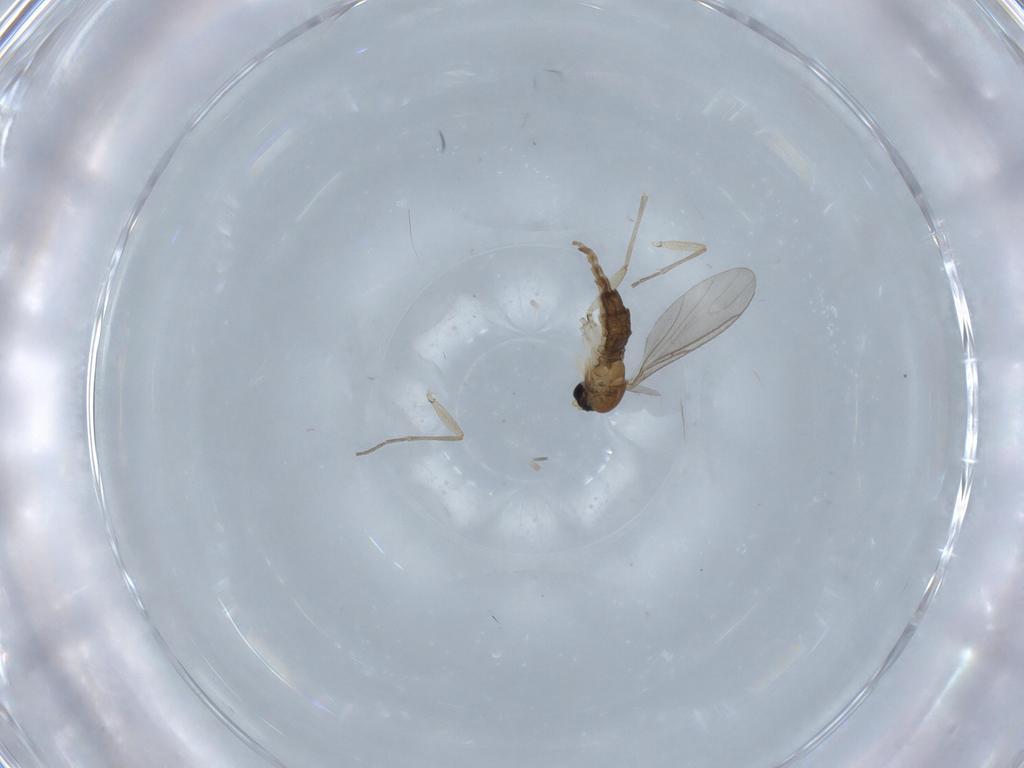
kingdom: Animalia
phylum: Arthropoda
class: Insecta
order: Diptera
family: Sciaridae
